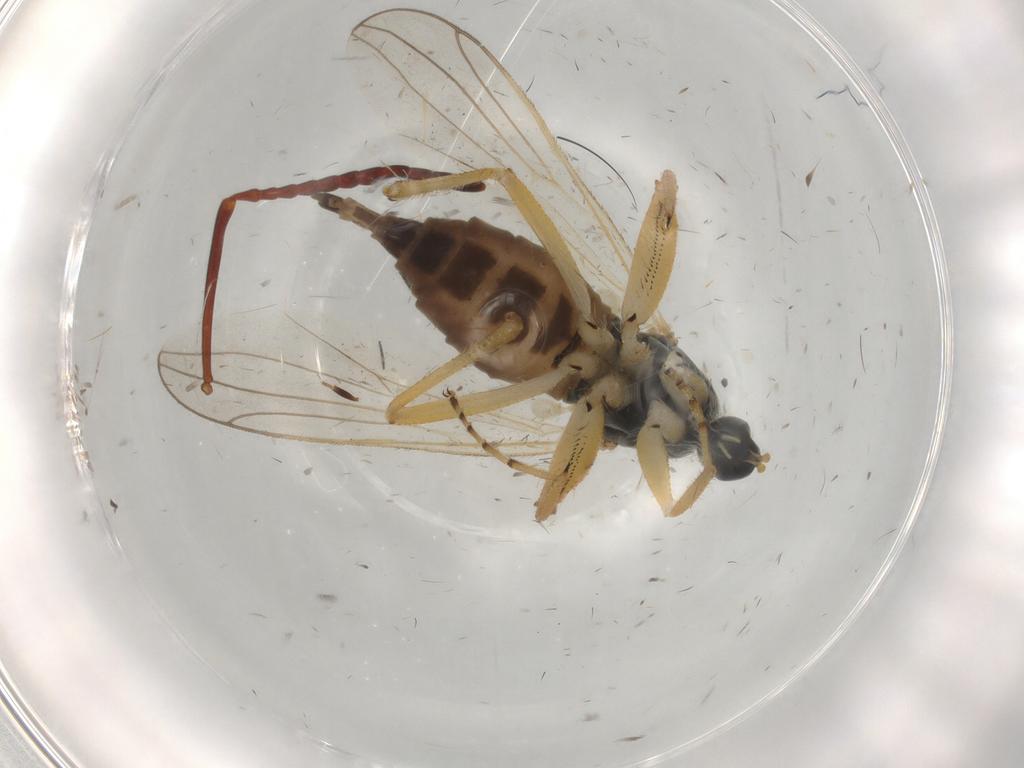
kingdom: Animalia
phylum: Arthropoda
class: Insecta
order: Diptera
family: Hybotidae
